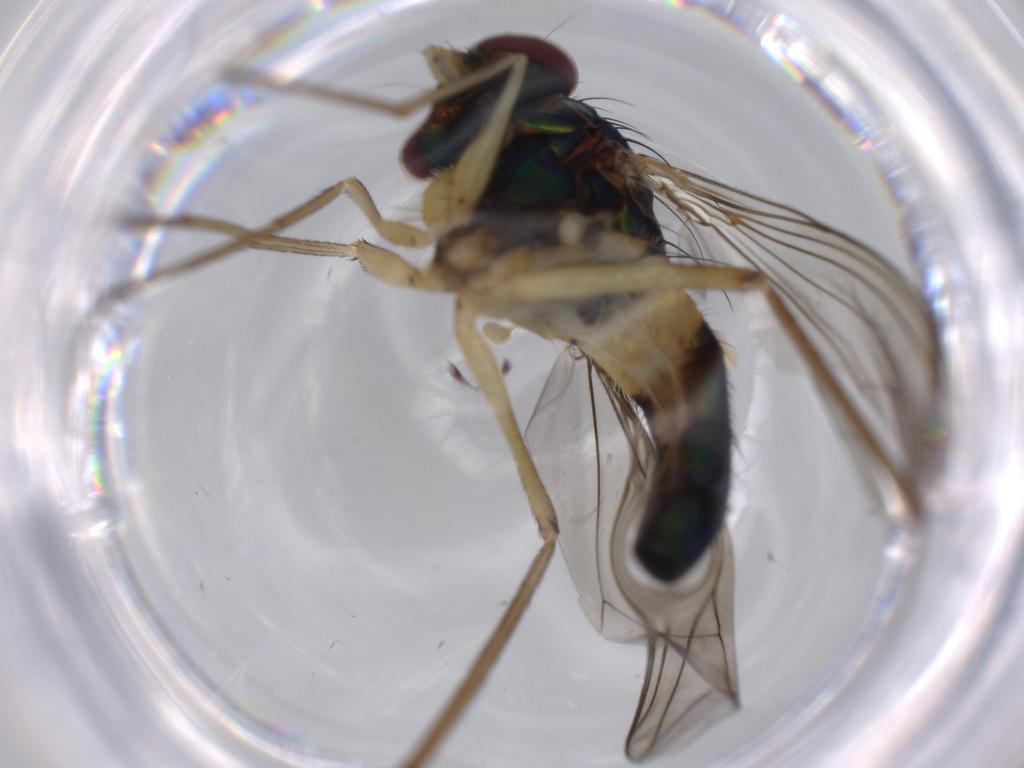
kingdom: Animalia
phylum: Arthropoda
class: Insecta
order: Diptera
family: Dolichopodidae
